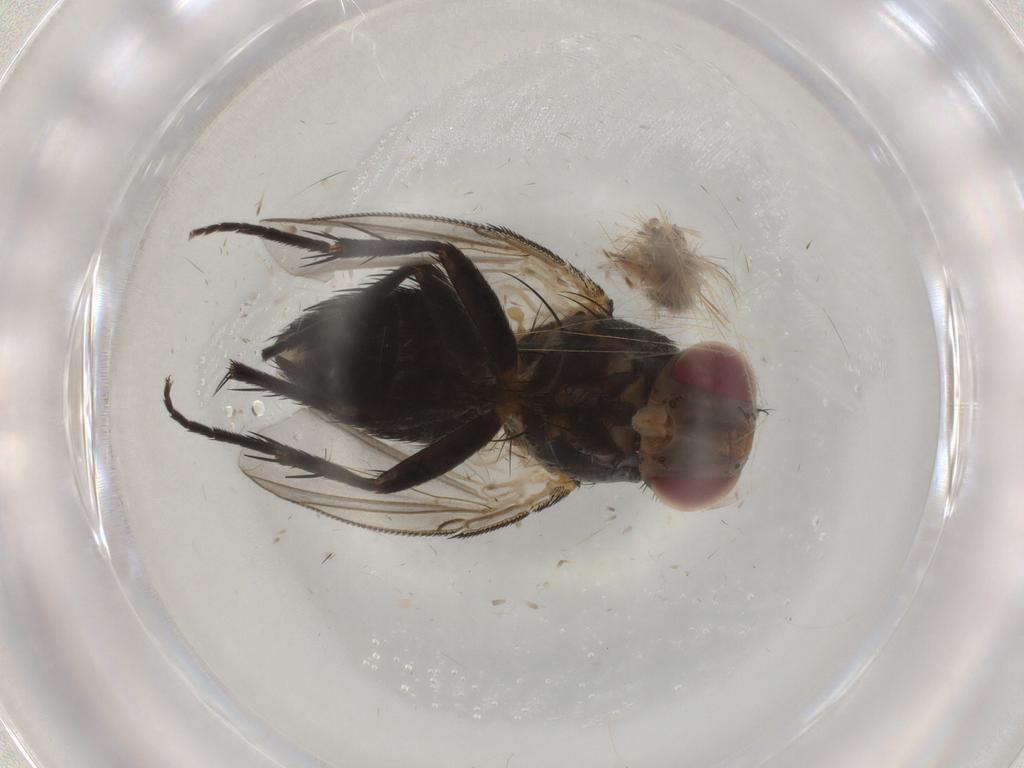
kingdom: Animalia
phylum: Arthropoda
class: Insecta
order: Diptera
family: Tachinidae
